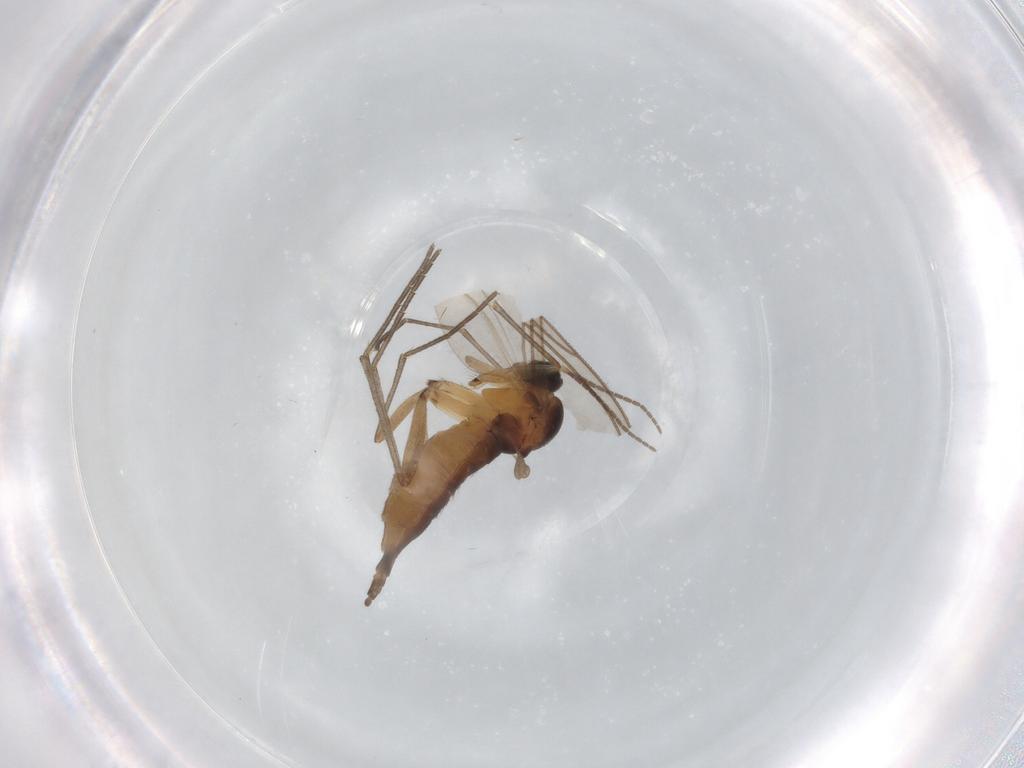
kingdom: Animalia
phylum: Arthropoda
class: Insecta
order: Diptera
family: Sciaridae
